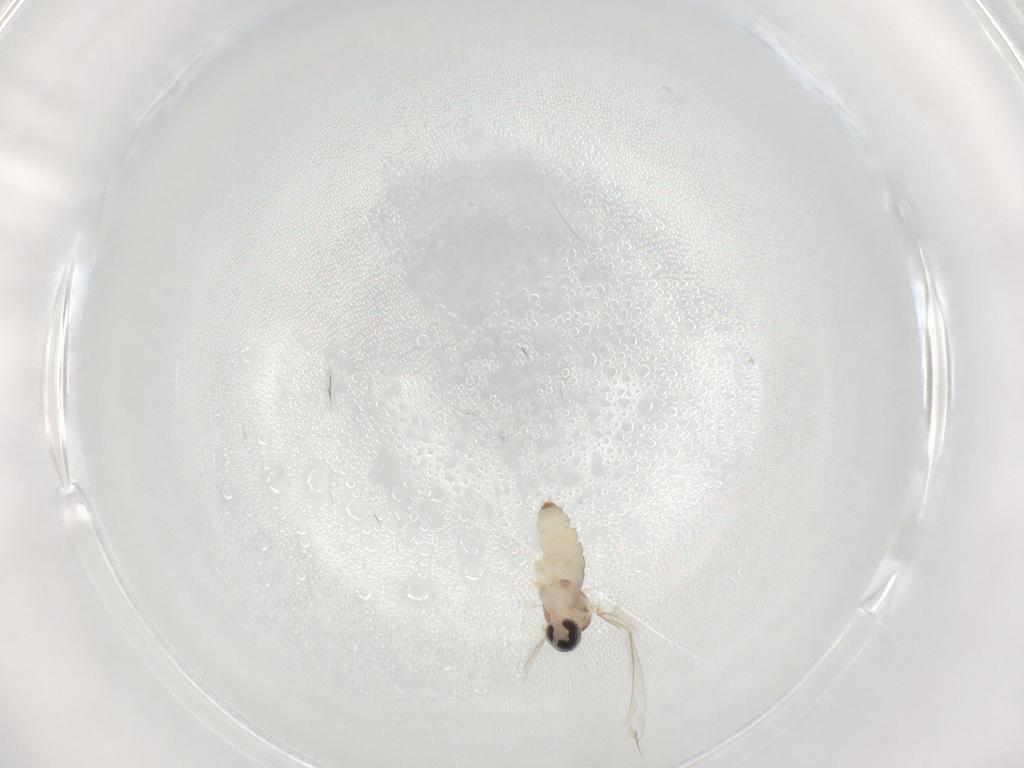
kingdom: Animalia
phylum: Arthropoda
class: Insecta
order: Diptera
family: Cecidomyiidae
